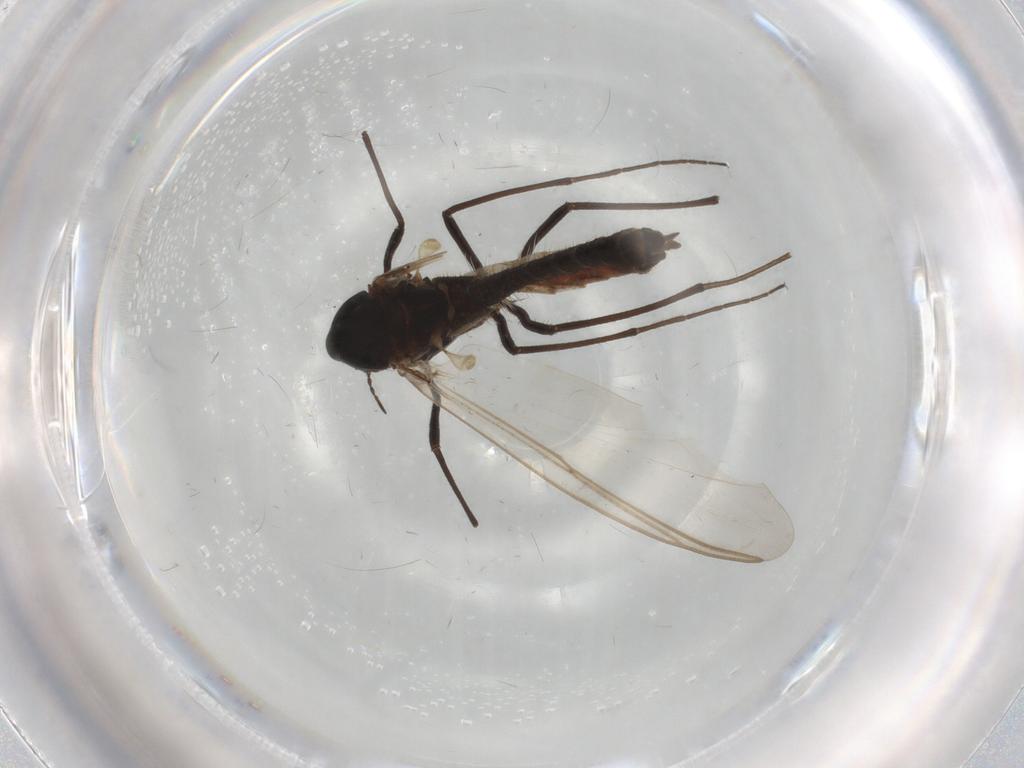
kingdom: Animalia
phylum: Arthropoda
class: Insecta
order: Diptera
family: Chironomidae
